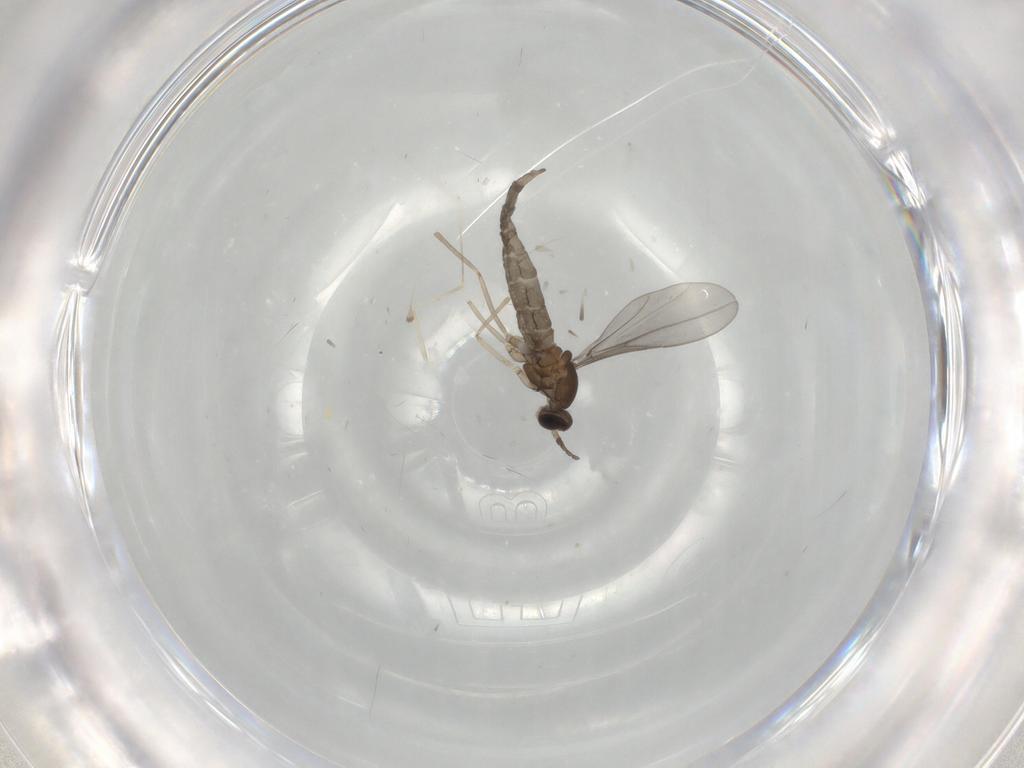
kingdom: Animalia
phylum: Arthropoda
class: Insecta
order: Diptera
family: Cecidomyiidae
